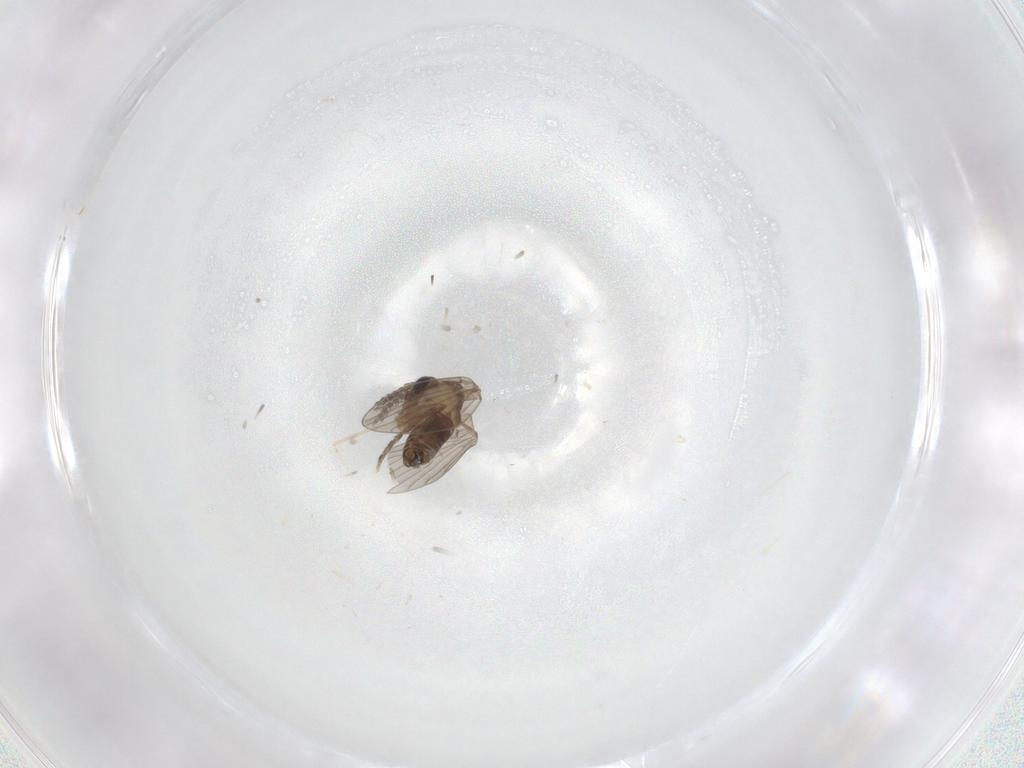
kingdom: Animalia
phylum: Arthropoda
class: Insecta
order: Diptera
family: Psychodidae
